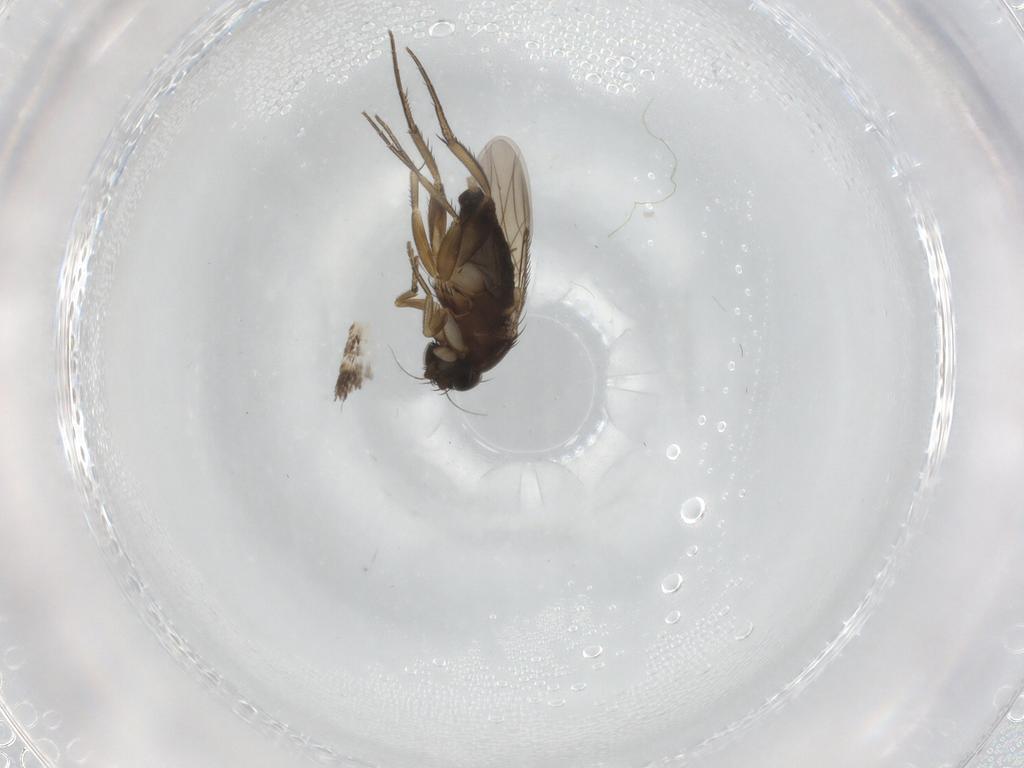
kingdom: Animalia
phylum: Arthropoda
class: Insecta
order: Diptera
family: Phoridae
